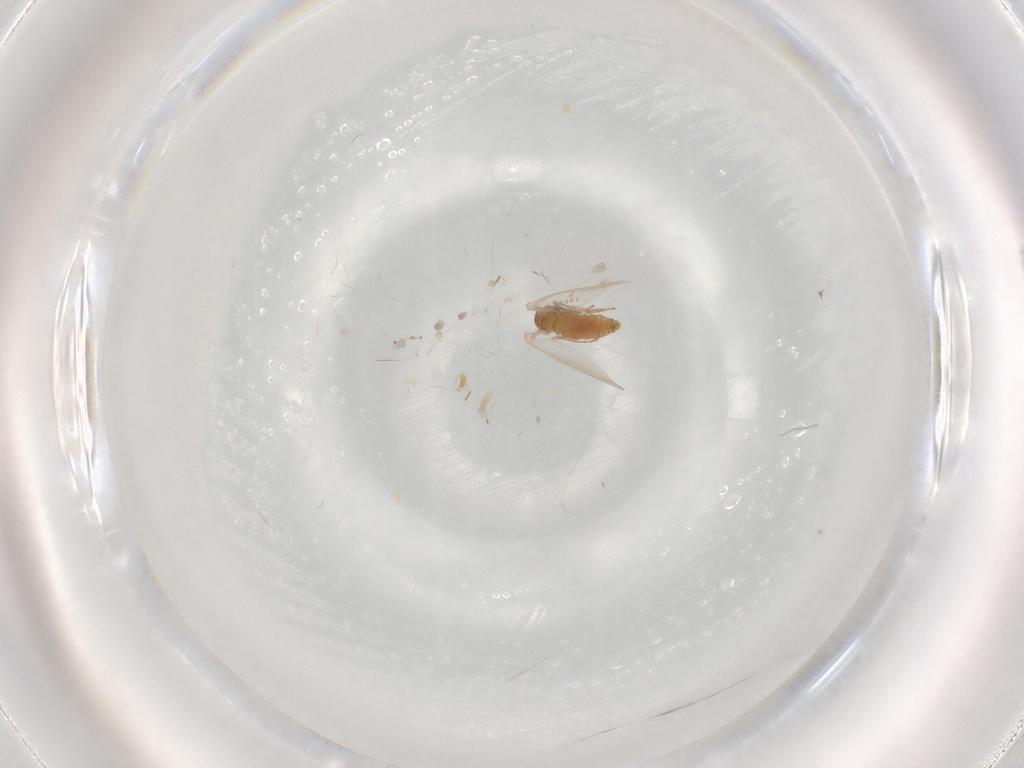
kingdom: Animalia
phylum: Arthropoda
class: Insecta
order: Diptera
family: Psychodidae
